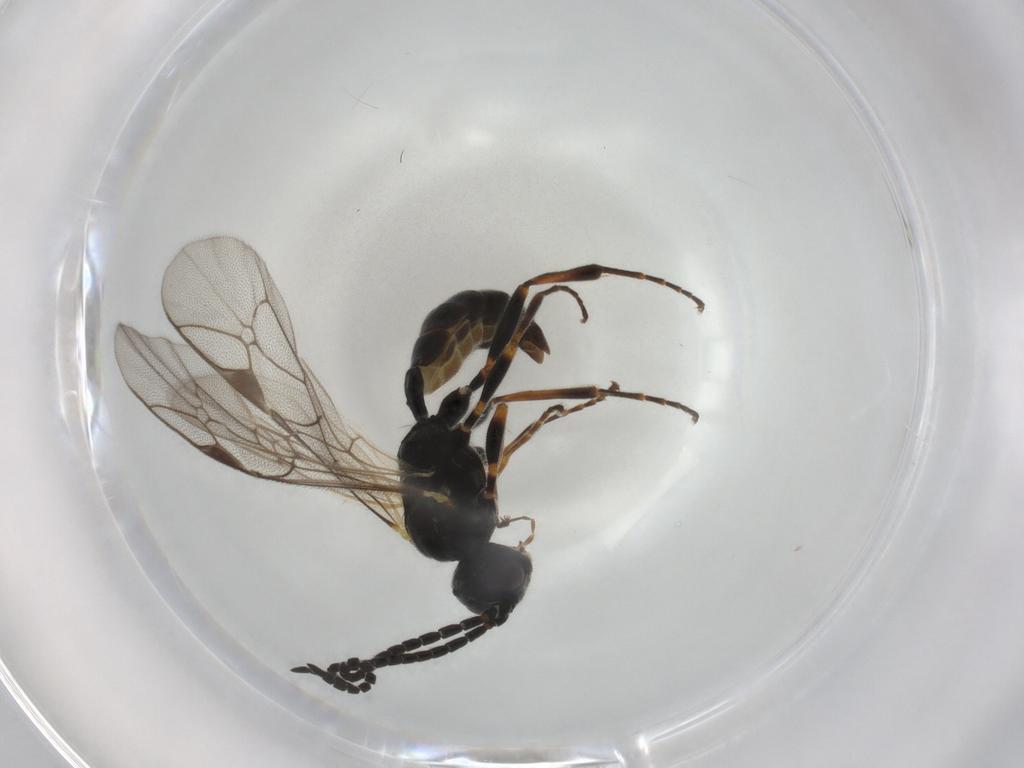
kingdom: Animalia
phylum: Arthropoda
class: Insecta
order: Hymenoptera
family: Ichneumonidae
